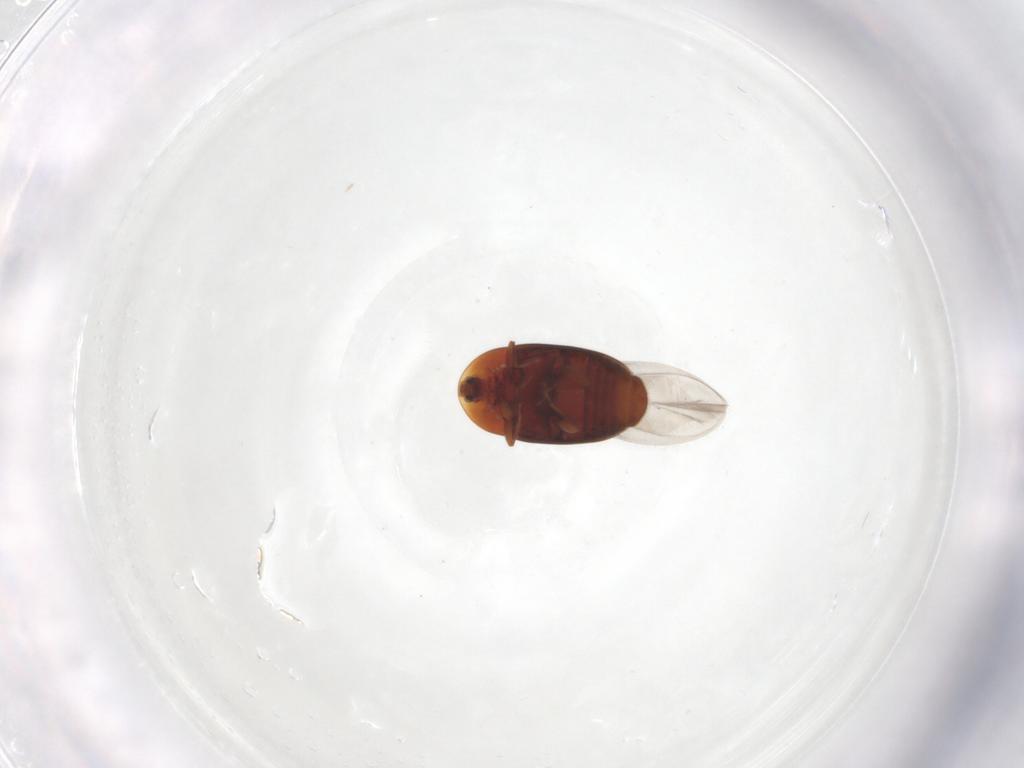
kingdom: Animalia
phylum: Arthropoda
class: Insecta
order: Coleoptera
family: Corylophidae
